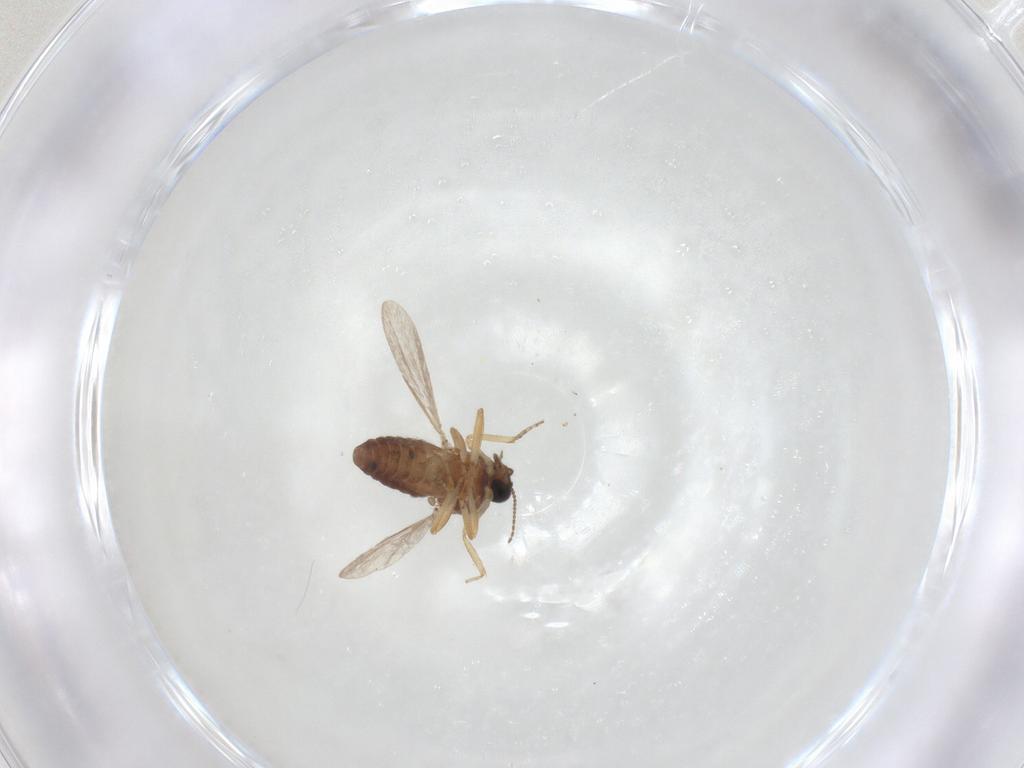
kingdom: Animalia
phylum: Arthropoda
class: Insecta
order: Diptera
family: Ceratopogonidae
